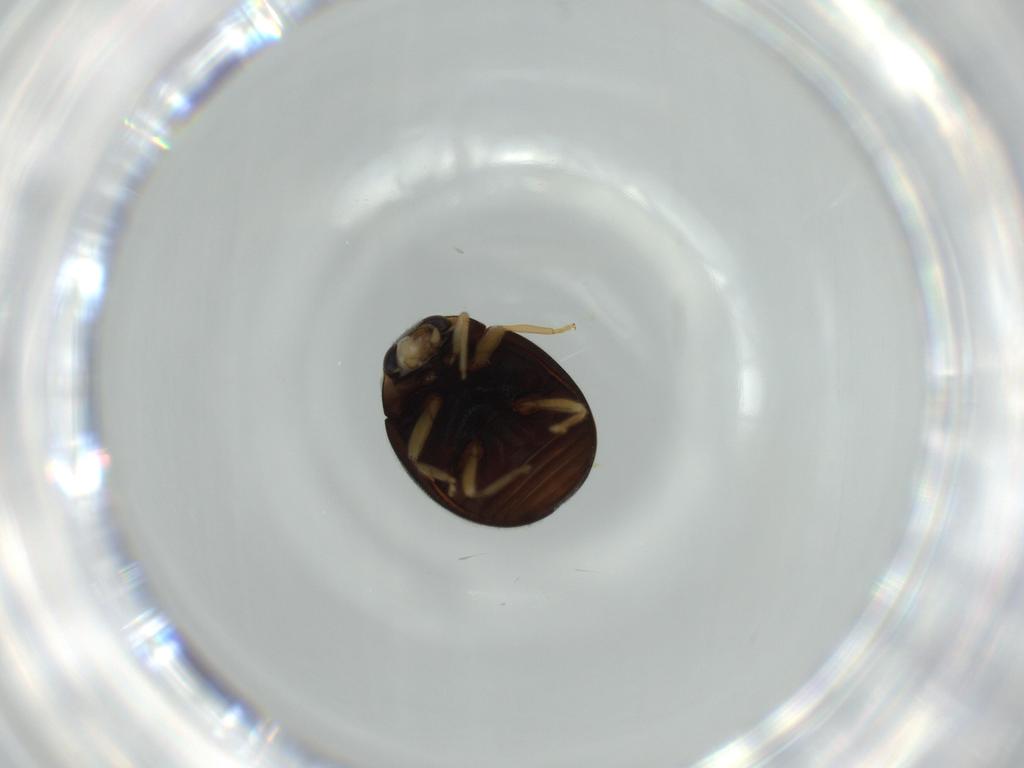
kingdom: Animalia
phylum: Arthropoda
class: Insecta
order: Coleoptera
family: Coccinellidae
